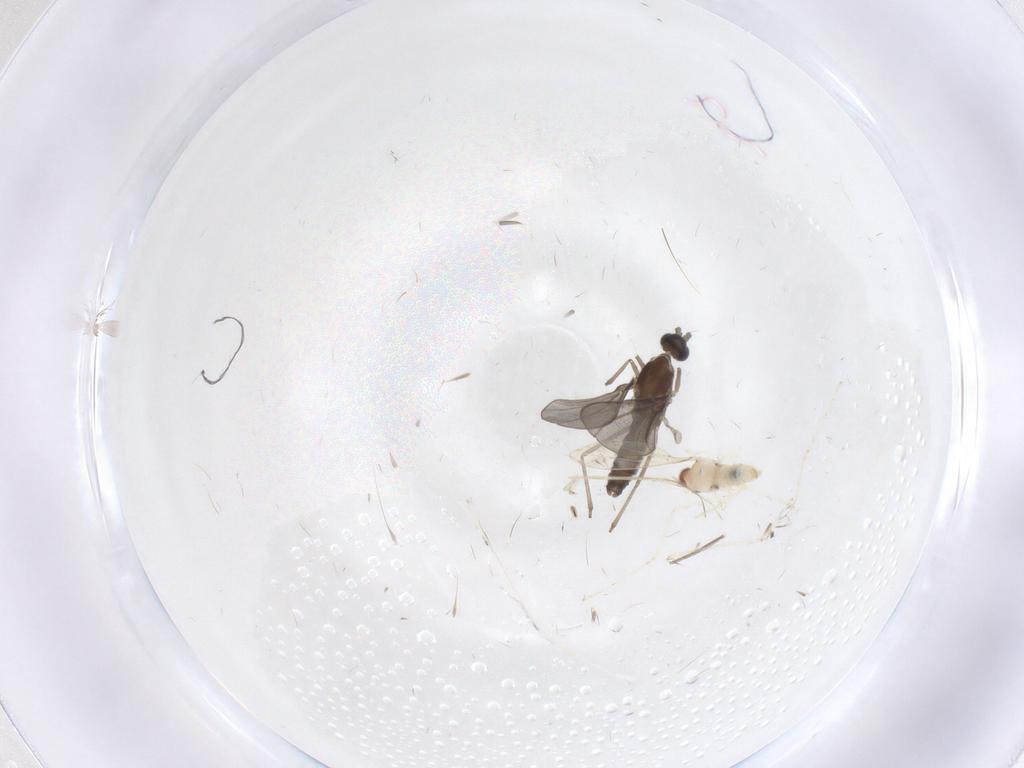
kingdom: Animalia
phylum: Arthropoda
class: Insecta
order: Diptera
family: Cecidomyiidae
